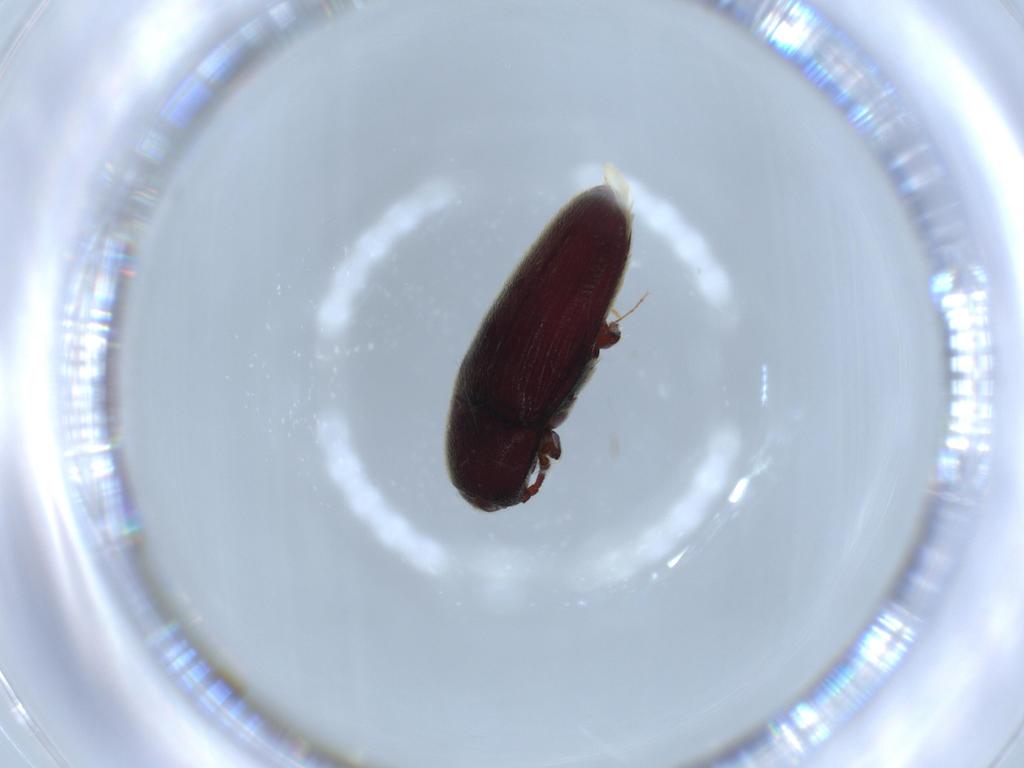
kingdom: Animalia
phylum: Arthropoda
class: Insecta
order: Coleoptera
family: Throscidae
